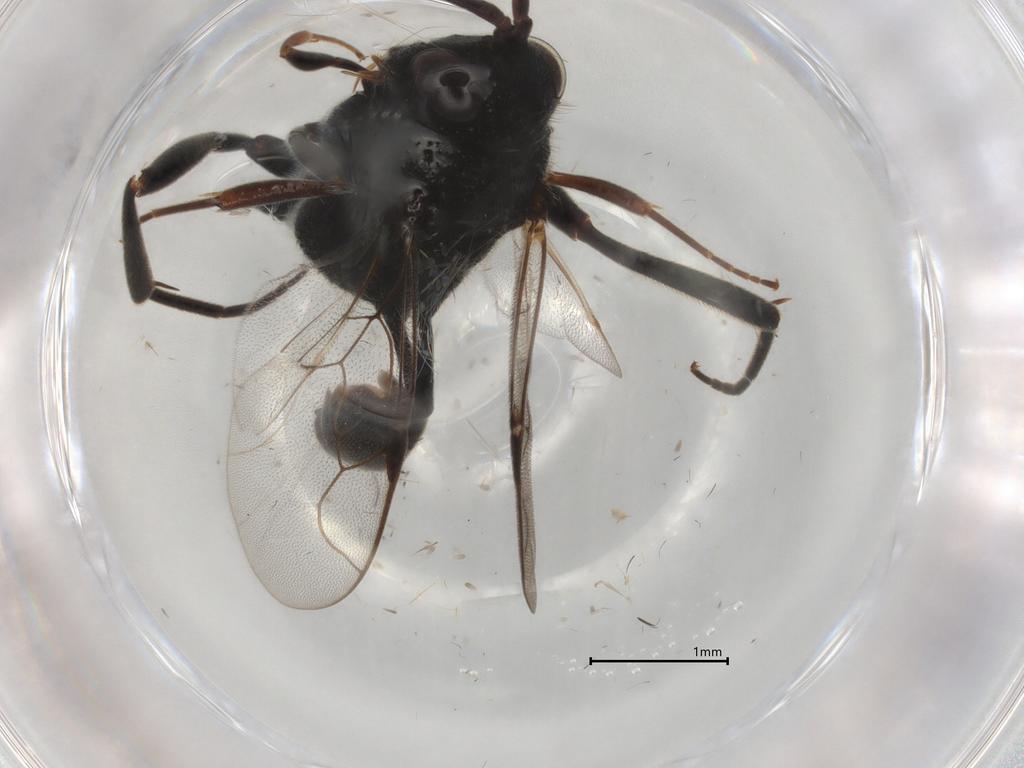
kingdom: Animalia
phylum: Arthropoda
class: Insecta
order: Hymenoptera
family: Evaniidae
